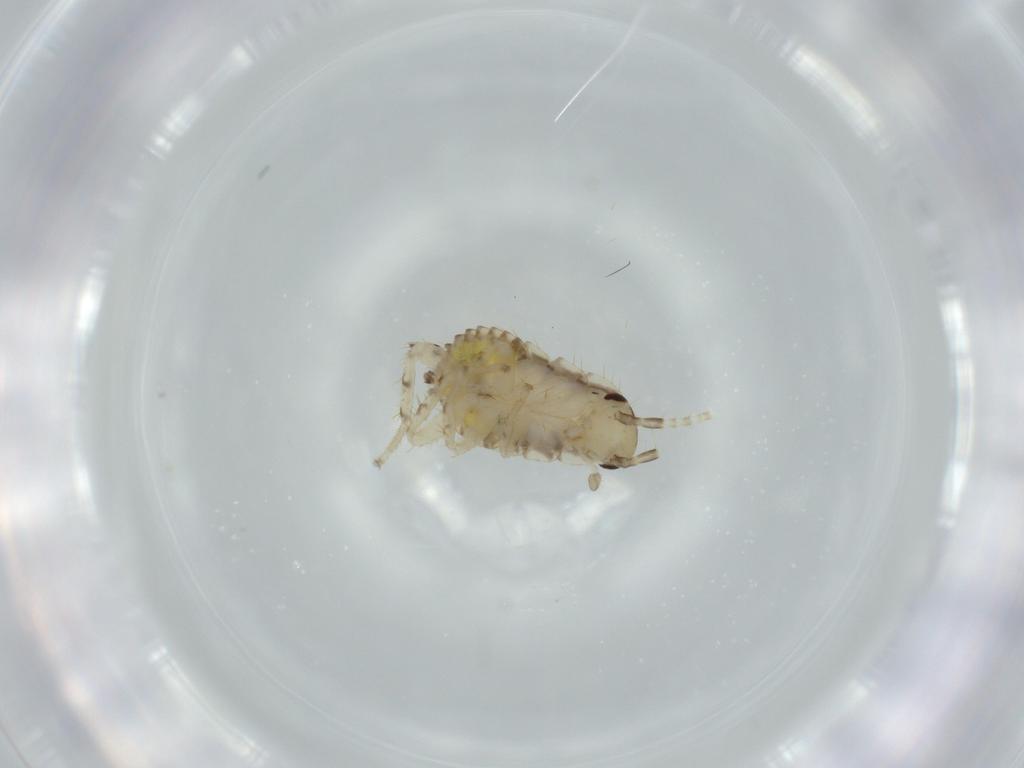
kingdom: Animalia
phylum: Arthropoda
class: Insecta
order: Blattodea
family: Ectobiidae
